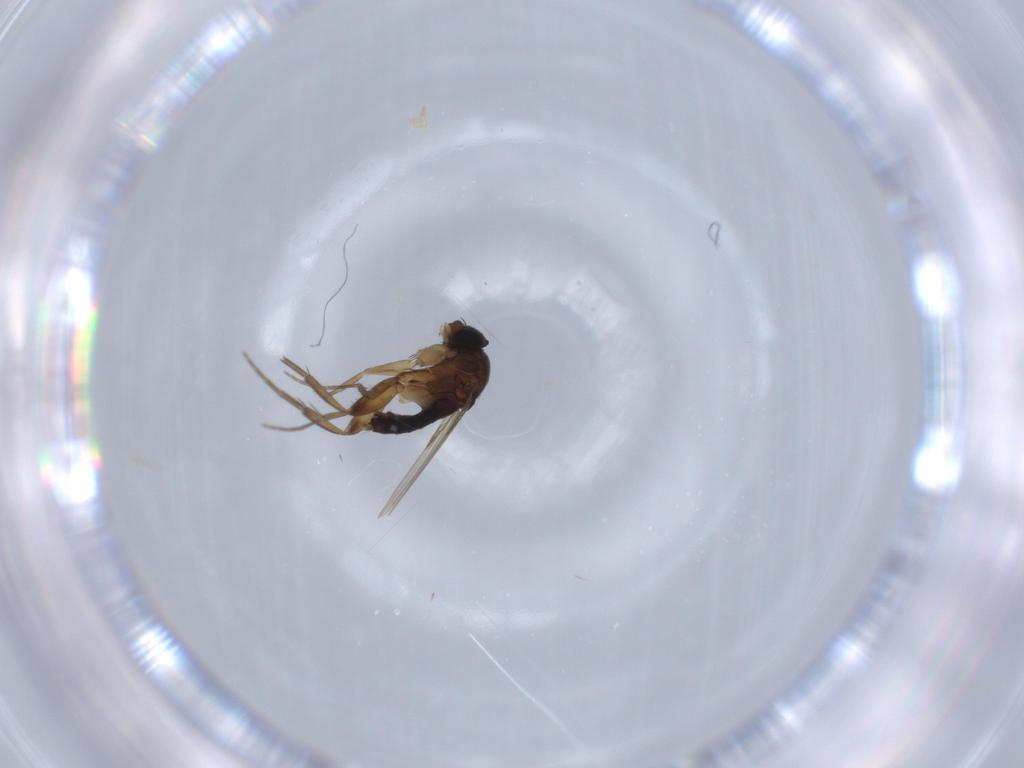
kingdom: Animalia
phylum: Arthropoda
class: Insecta
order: Diptera
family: Phoridae
